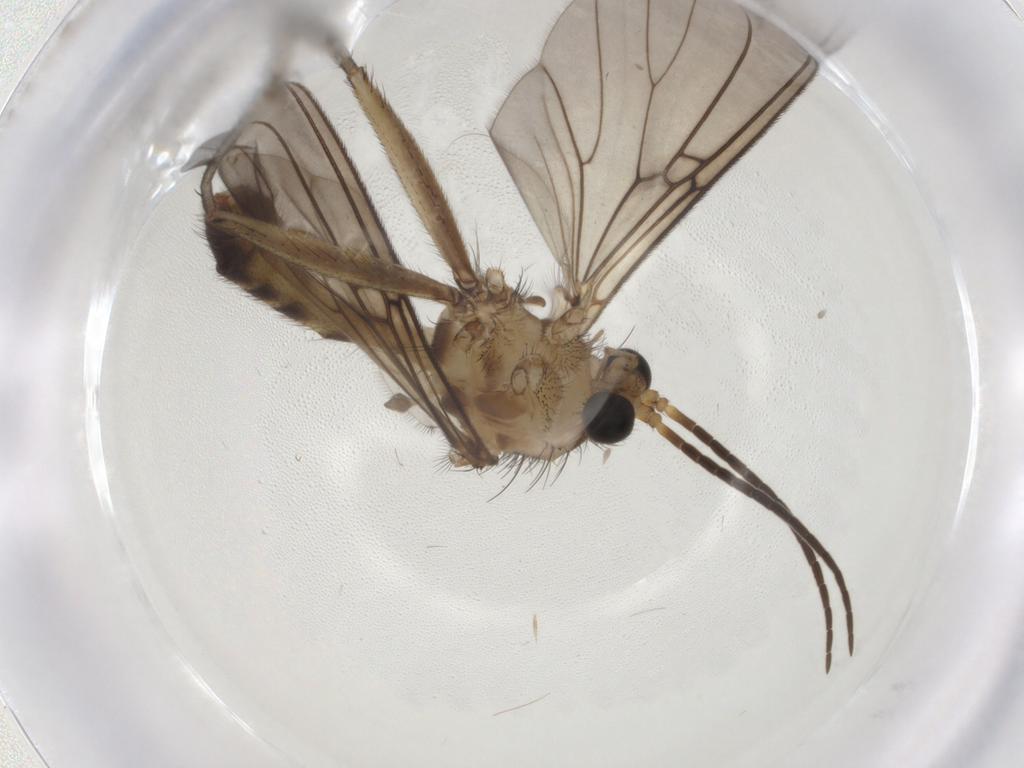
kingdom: Animalia
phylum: Arthropoda
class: Insecta
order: Diptera
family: Mycetophilidae
